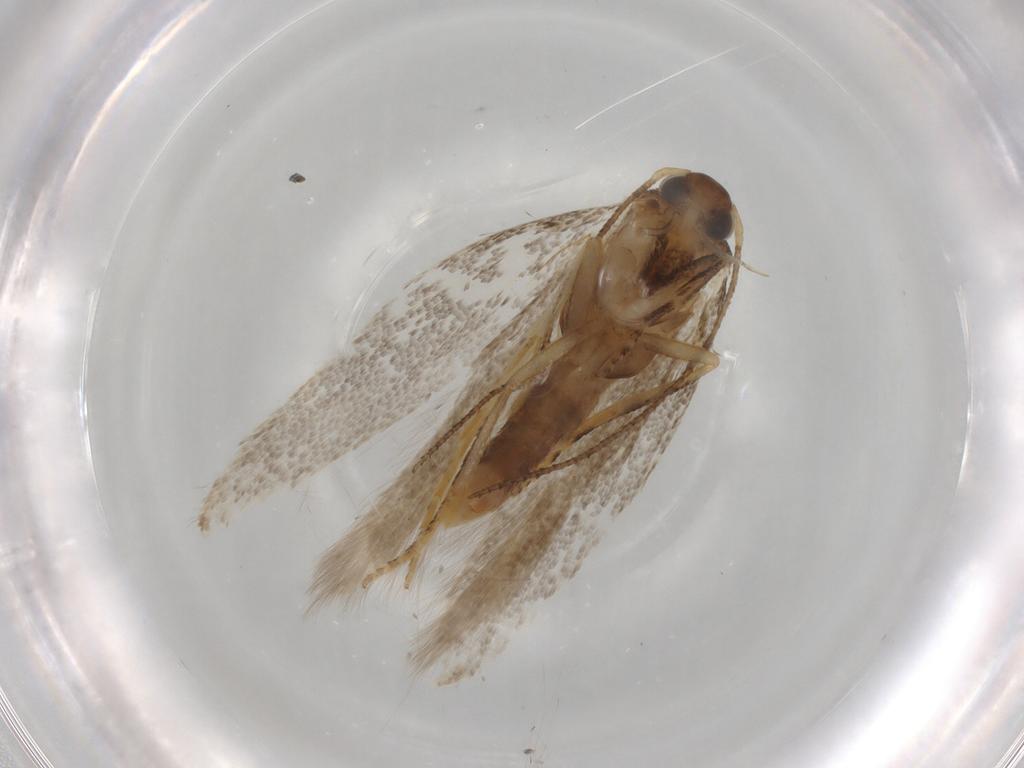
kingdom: Animalia
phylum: Arthropoda
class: Insecta
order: Lepidoptera
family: Gelechiidae
